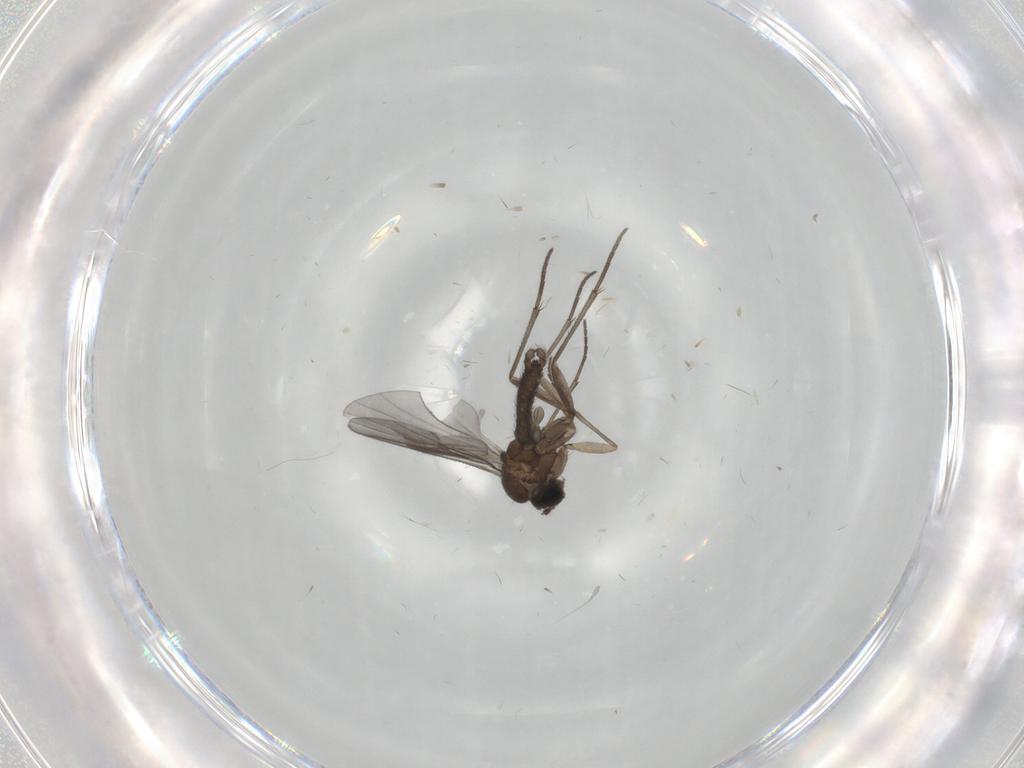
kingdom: Animalia
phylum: Arthropoda
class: Insecta
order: Diptera
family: Sciaridae
